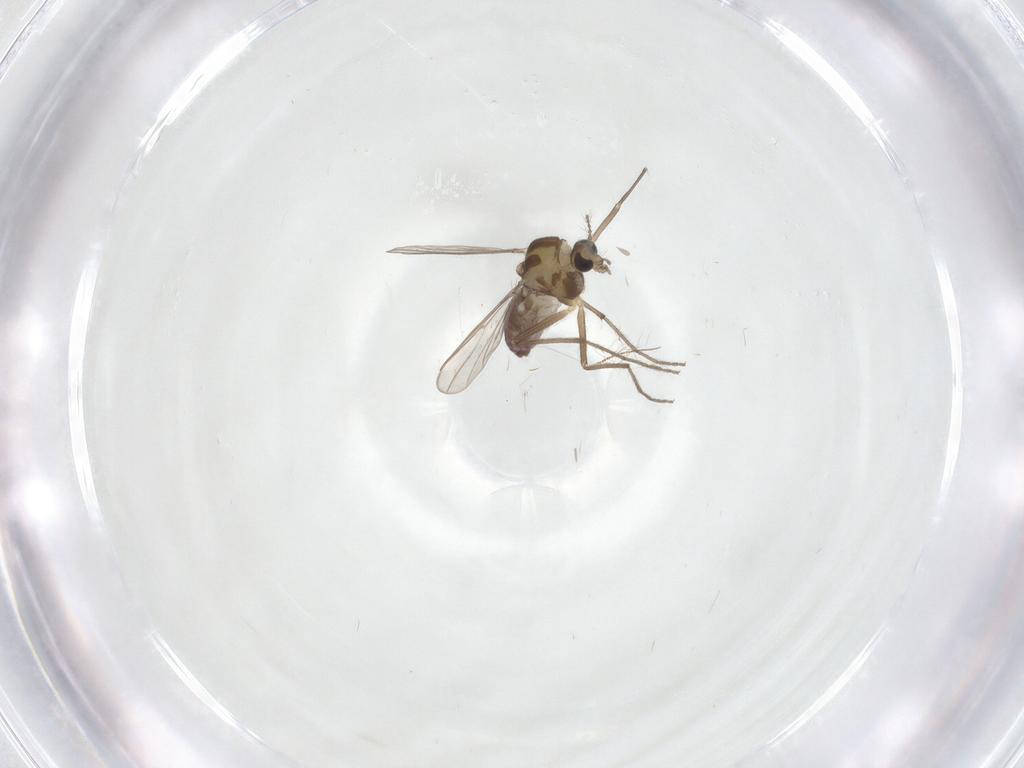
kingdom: Animalia
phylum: Arthropoda
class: Insecta
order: Diptera
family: Chironomidae
